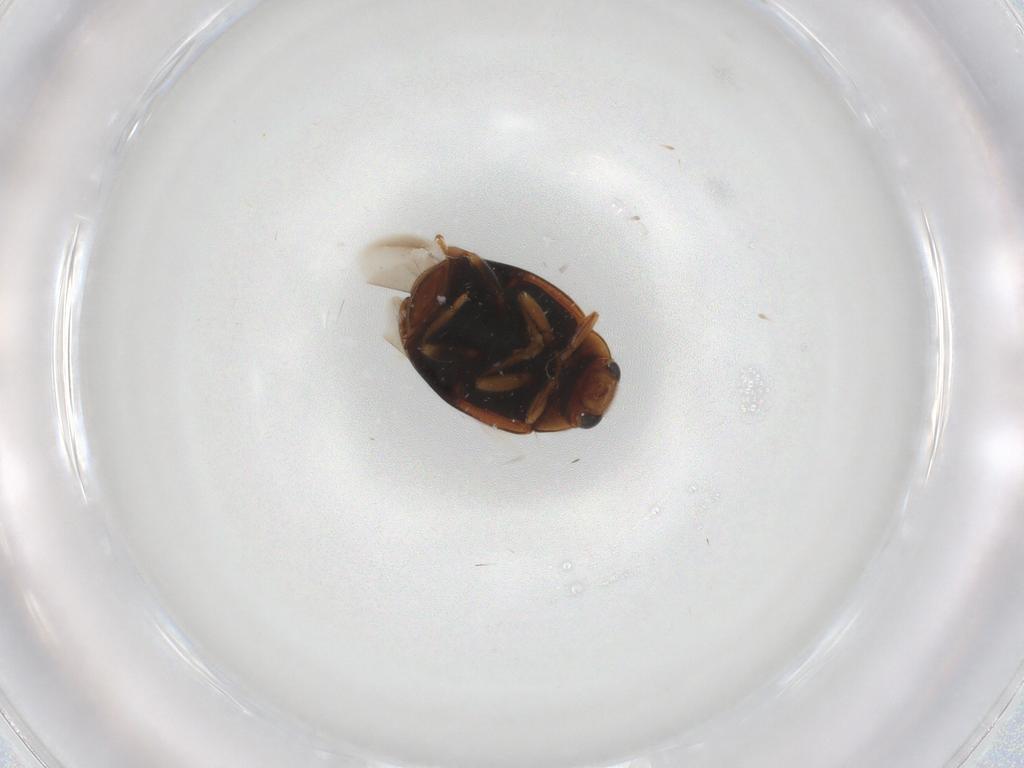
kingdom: Animalia
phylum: Arthropoda
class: Insecta
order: Coleoptera
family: Coccinellidae
